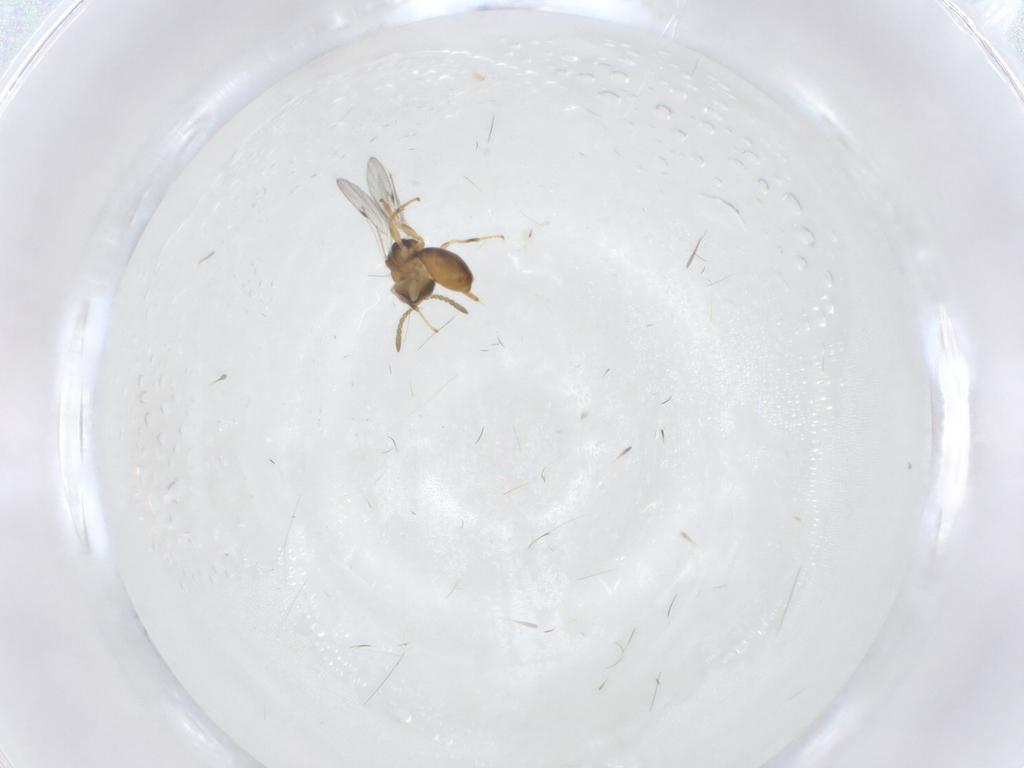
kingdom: Animalia
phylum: Arthropoda
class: Insecta
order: Hymenoptera
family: Eurytomidae
